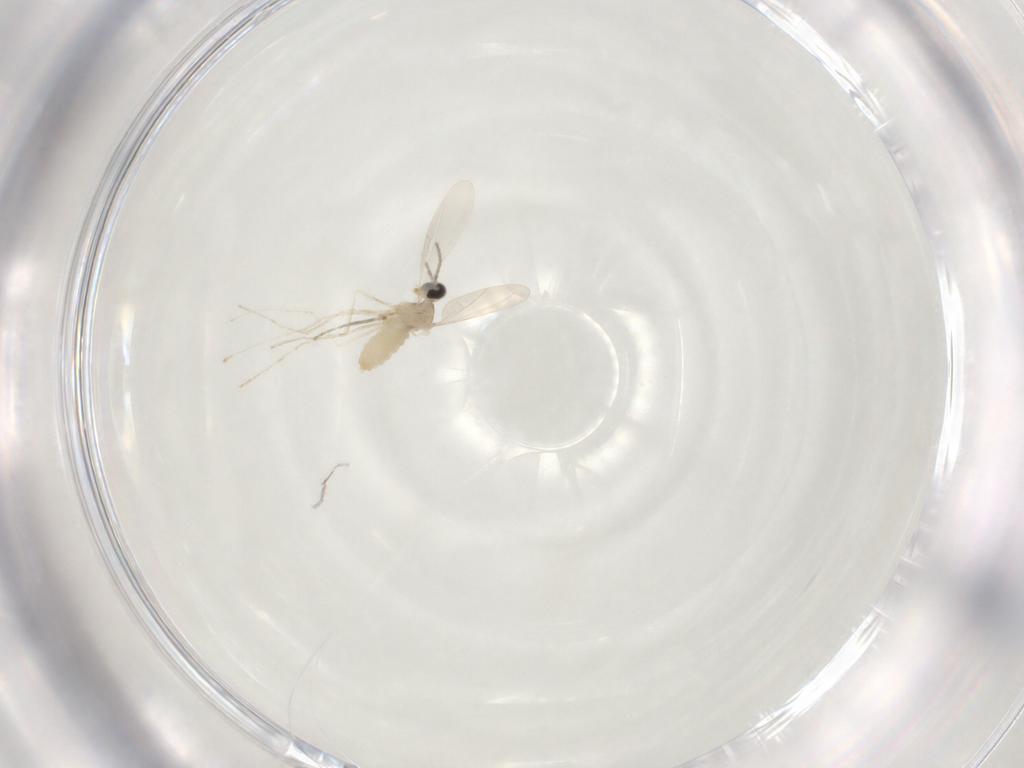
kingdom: Animalia
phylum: Arthropoda
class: Insecta
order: Diptera
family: Cecidomyiidae
